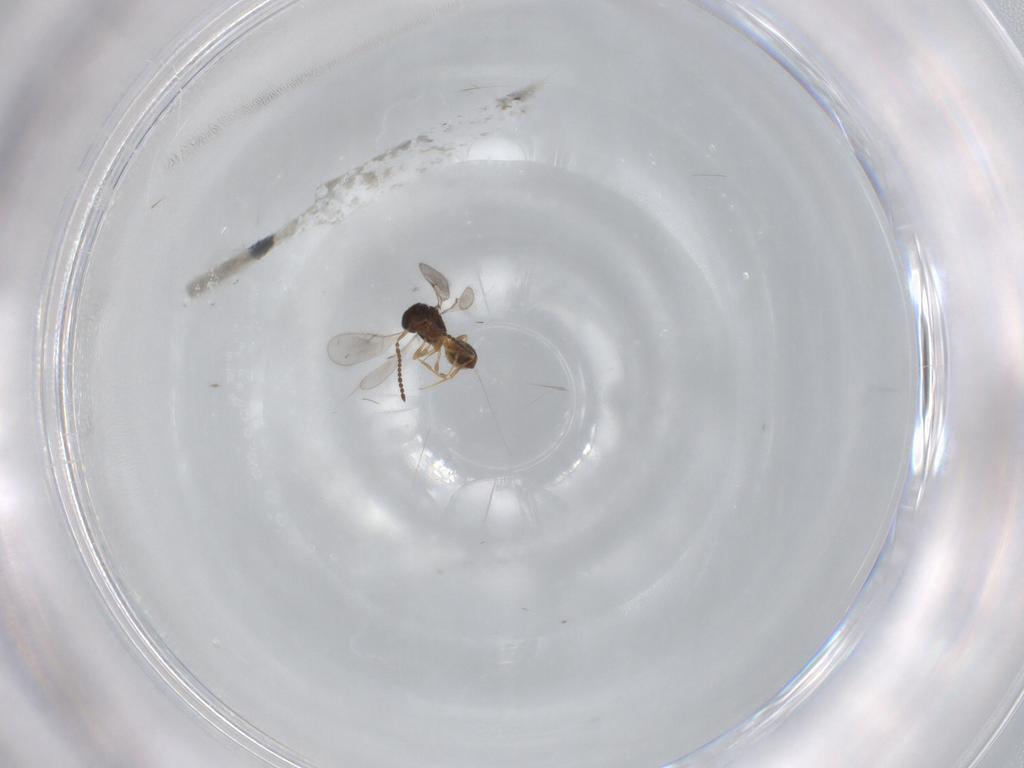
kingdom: Animalia
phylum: Arthropoda
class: Insecta
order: Hymenoptera
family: Scelionidae
